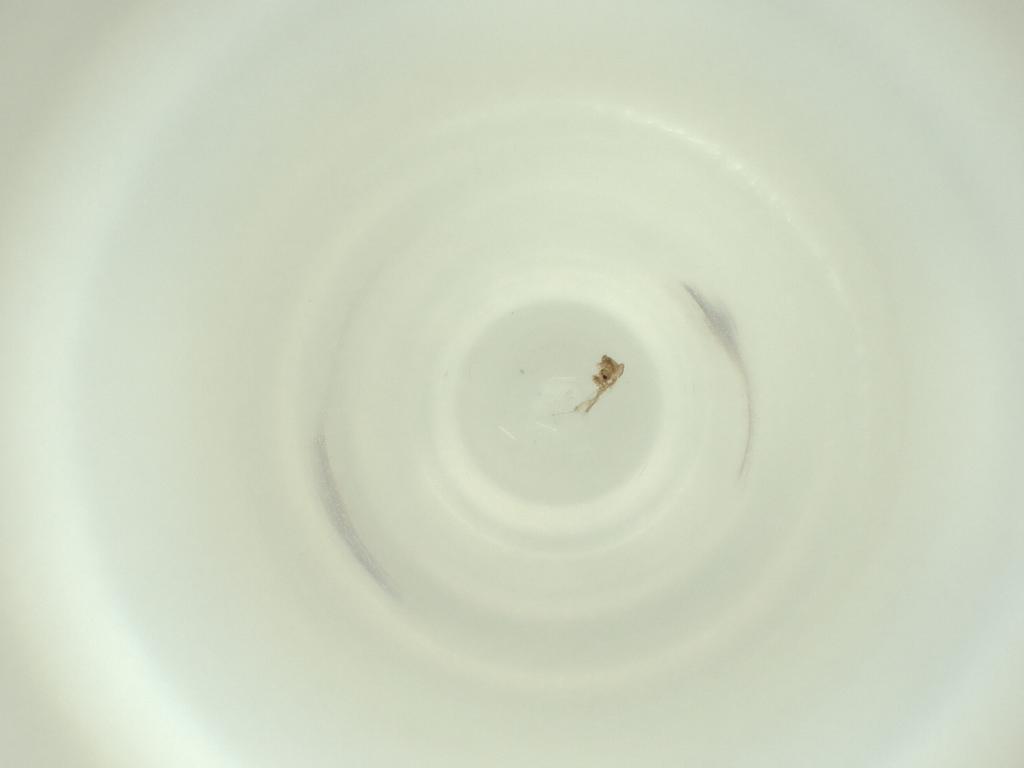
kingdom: Animalia
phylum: Arthropoda
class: Insecta
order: Diptera
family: Cecidomyiidae
